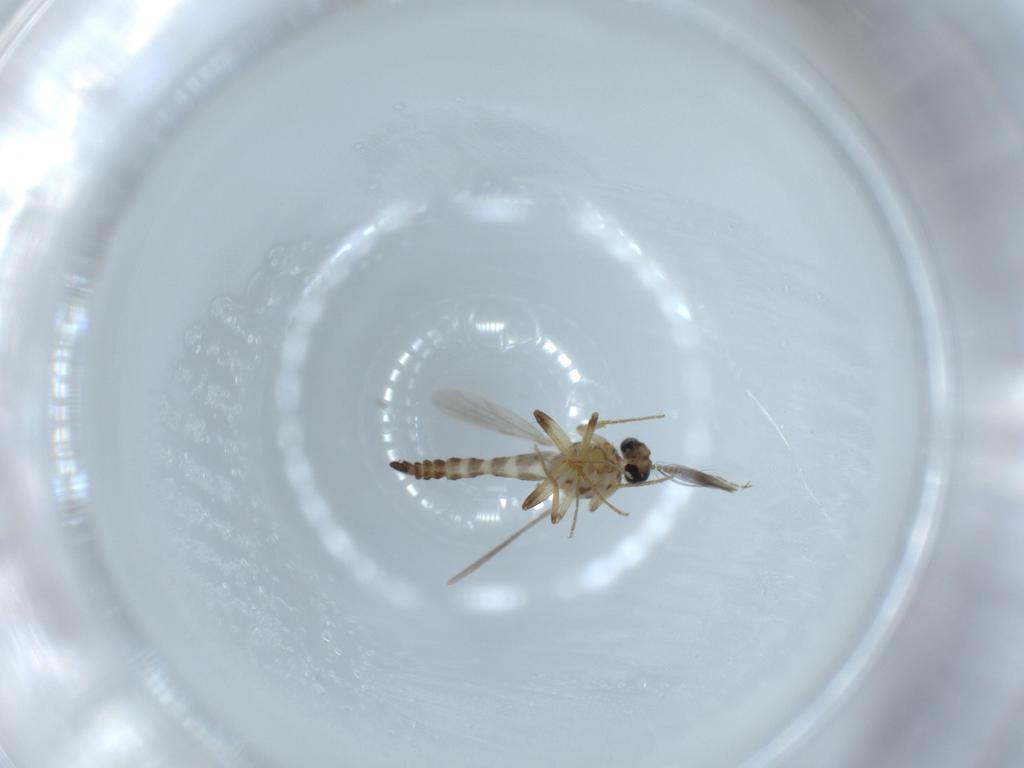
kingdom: Animalia
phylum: Arthropoda
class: Insecta
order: Diptera
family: Ceratopogonidae
